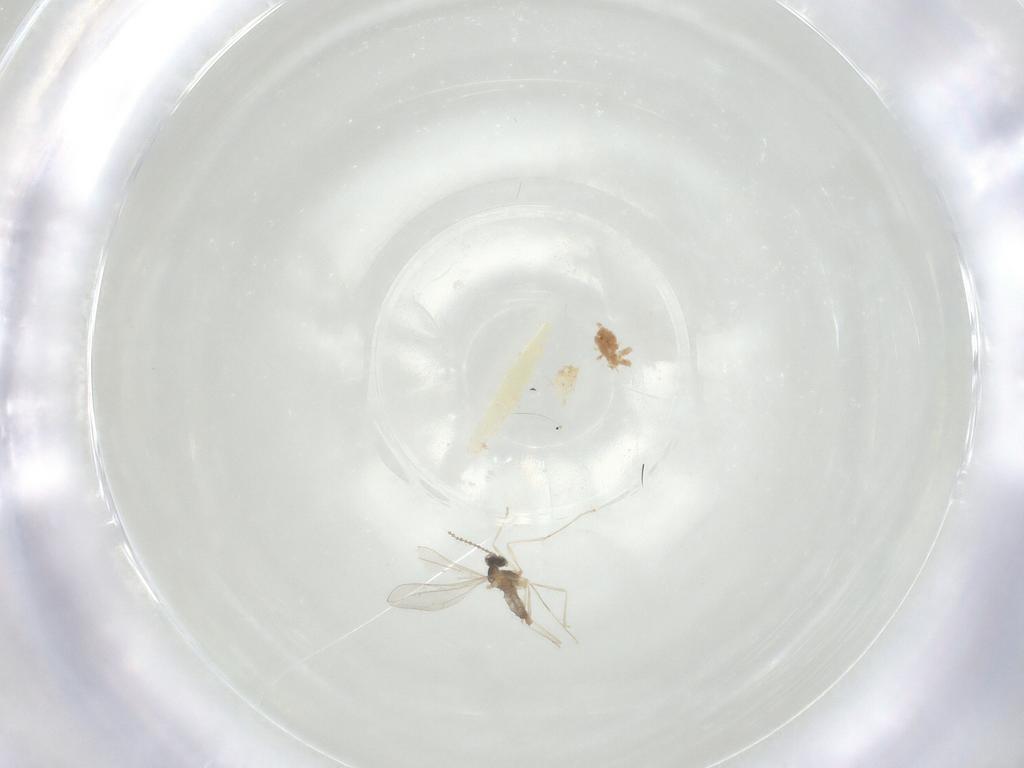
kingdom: Animalia
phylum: Arthropoda
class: Insecta
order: Diptera
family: Cecidomyiidae
